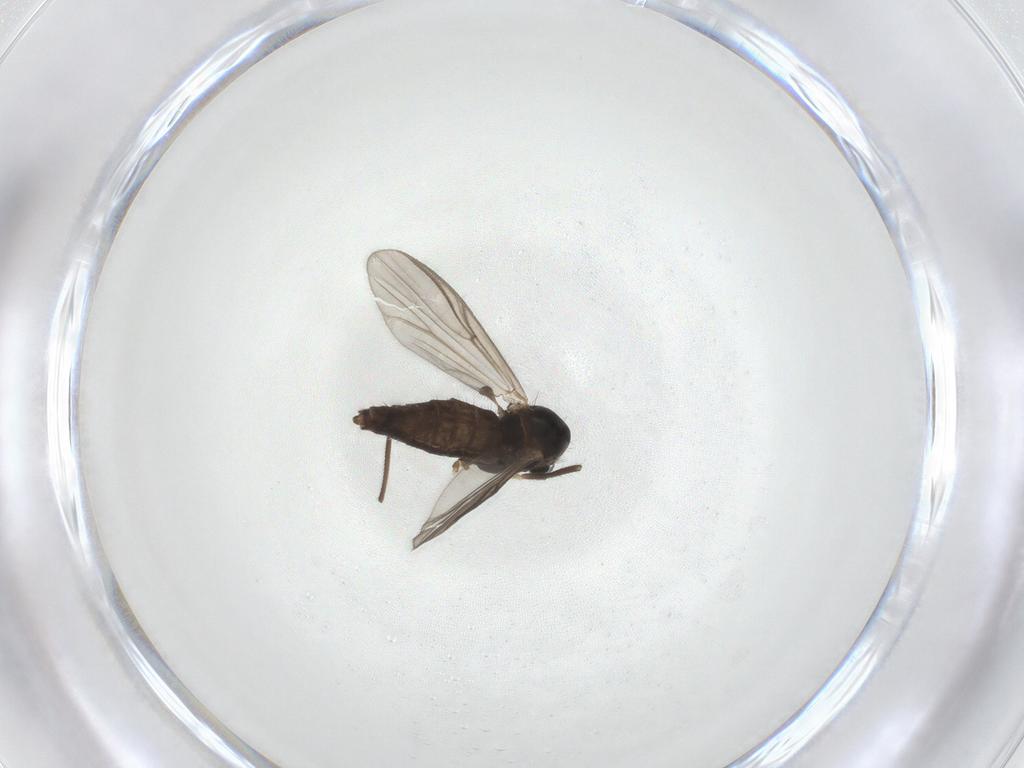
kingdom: Animalia
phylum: Arthropoda
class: Insecta
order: Diptera
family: Chironomidae
